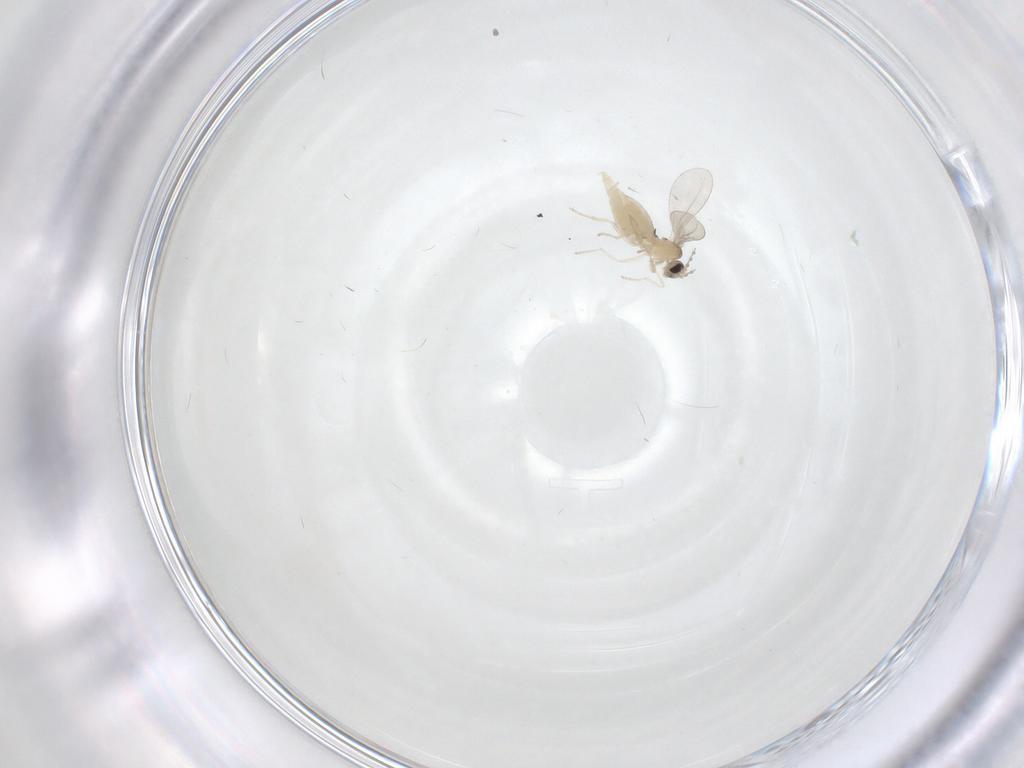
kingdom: Animalia
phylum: Arthropoda
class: Insecta
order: Diptera
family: Cecidomyiidae
